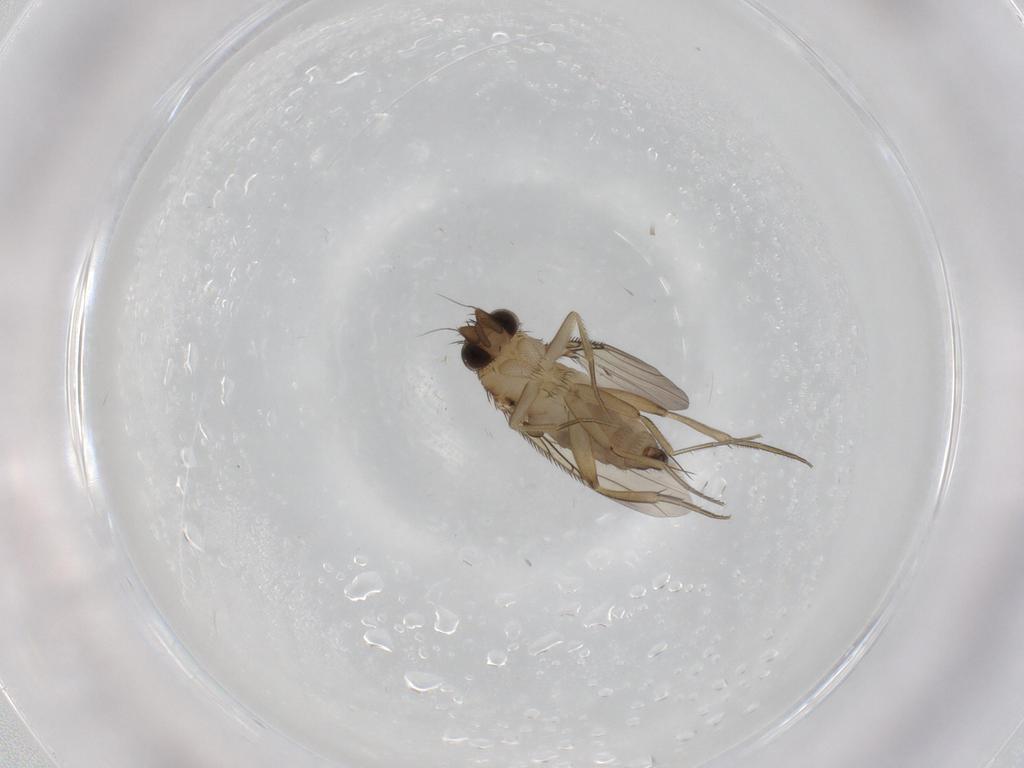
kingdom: Animalia
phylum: Arthropoda
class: Insecta
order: Diptera
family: Phoridae
